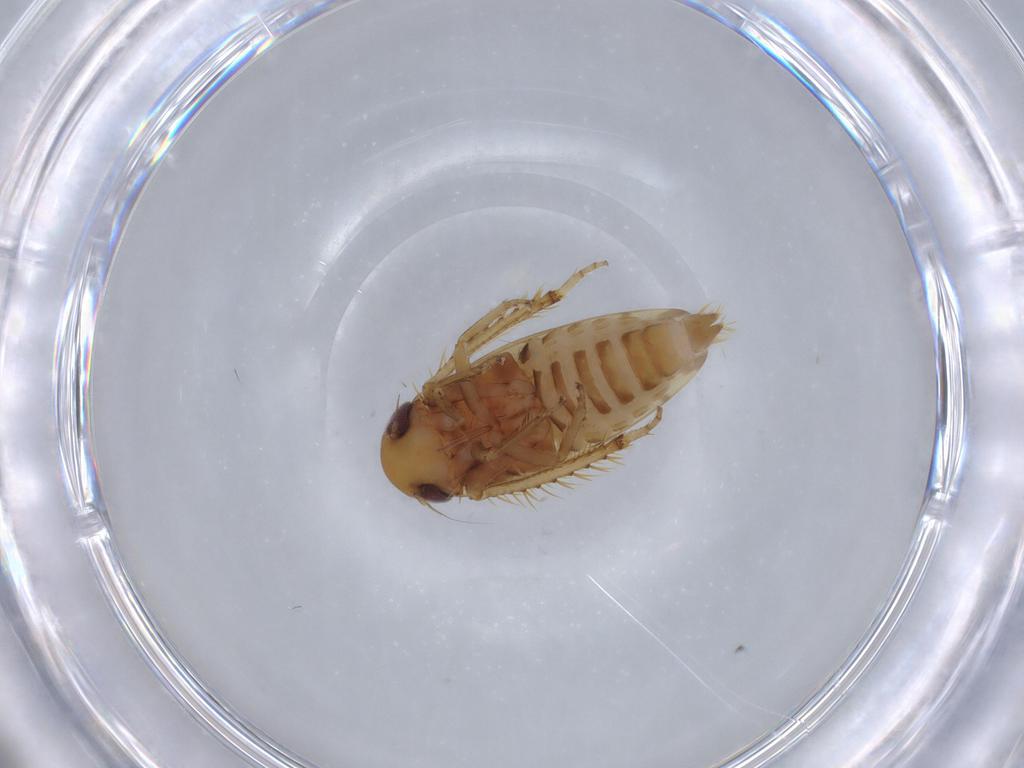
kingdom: Animalia
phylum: Arthropoda
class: Insecta
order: Hemiptera
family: Cicadellidae
